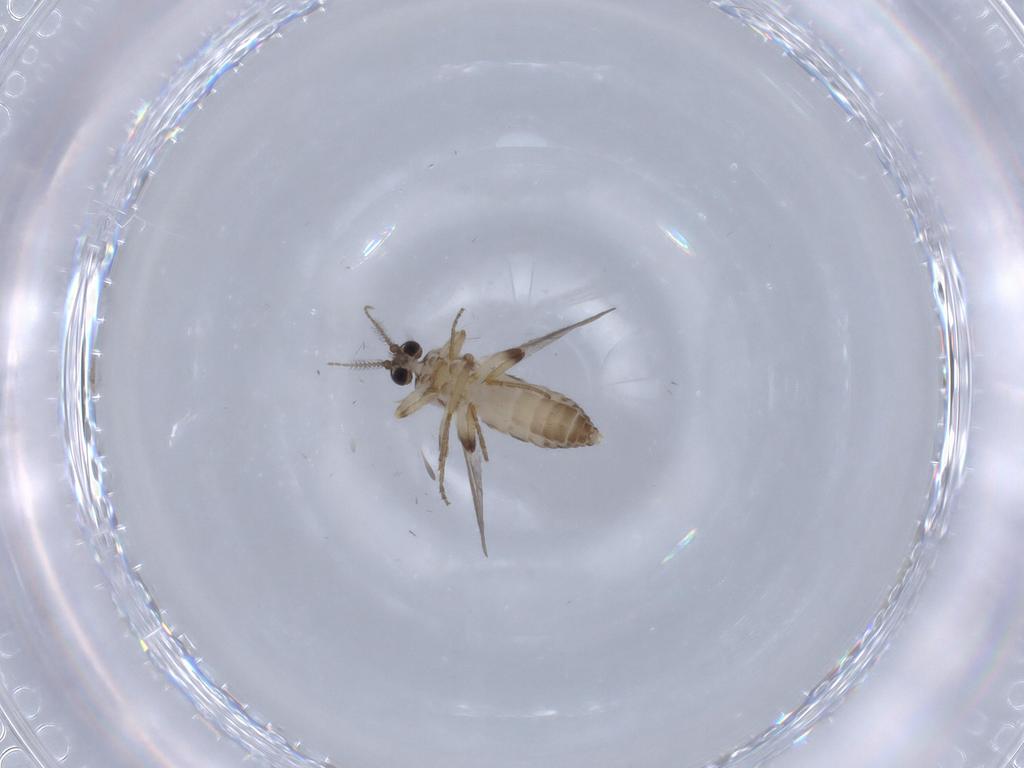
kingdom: Animalia
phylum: Arthropoda
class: Insecta
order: Diptera
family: Ceratopogonidae
